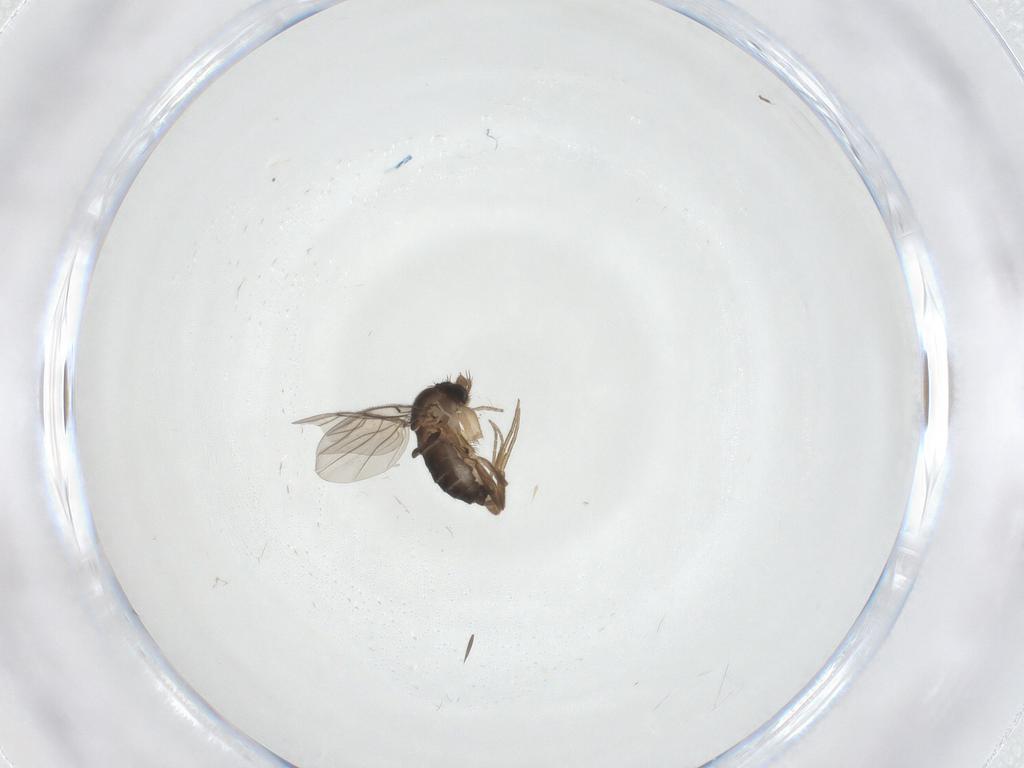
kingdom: Animalia
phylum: Arthropoda
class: Insecta
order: Diptera
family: Phoridae
